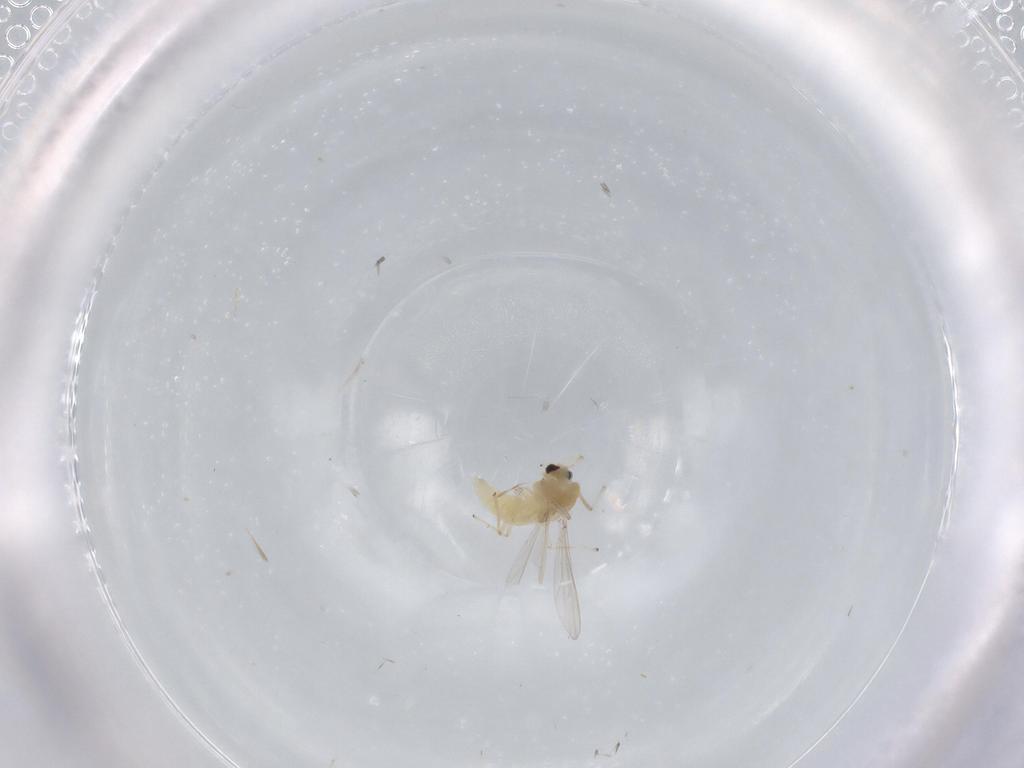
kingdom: Animalia
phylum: Arthropoda
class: Insecta
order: Diptera
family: Chironomidae
